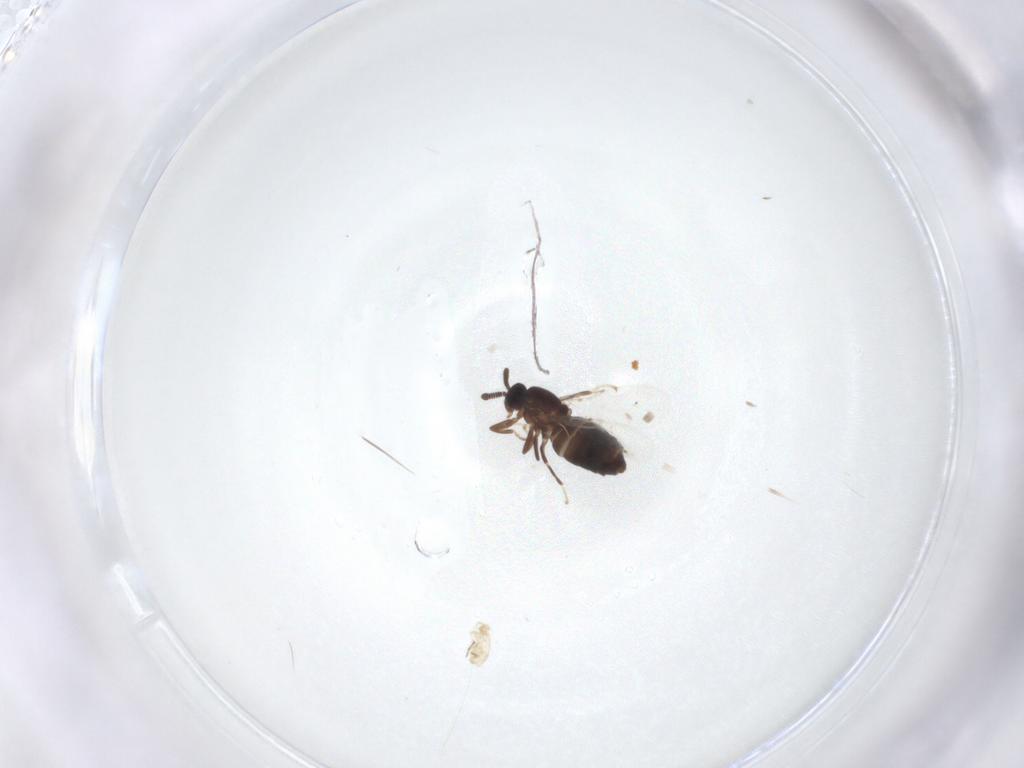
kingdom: Animalia
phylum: Arthropoda
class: Insecta
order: Diptera
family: Scatopsidae
